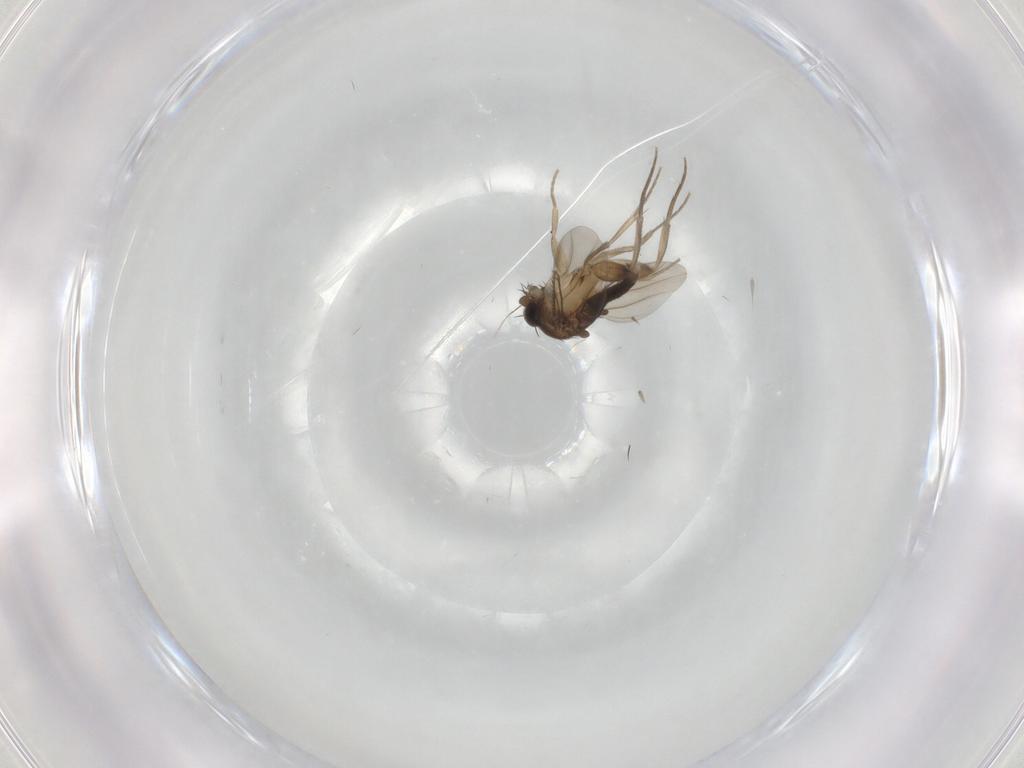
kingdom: Animalia
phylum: Arthropoda
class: Insecta
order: Diptera
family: Phoridae
